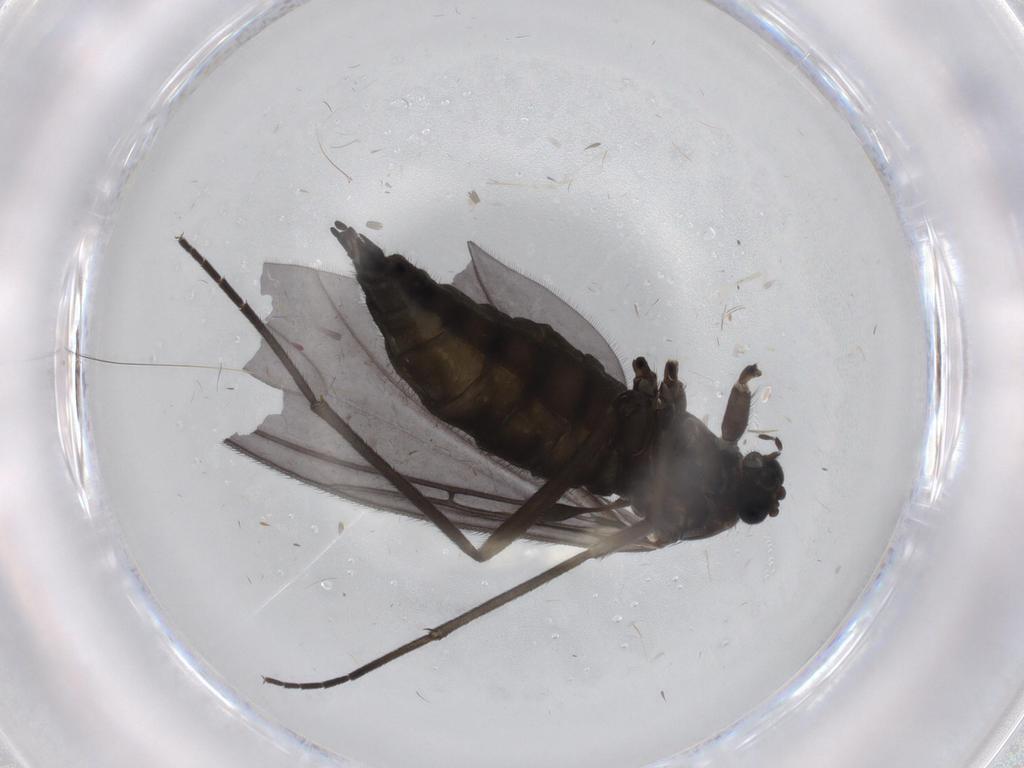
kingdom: Animalia
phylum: Arthropoda
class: Insecta
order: Diptera
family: Sciaridae
